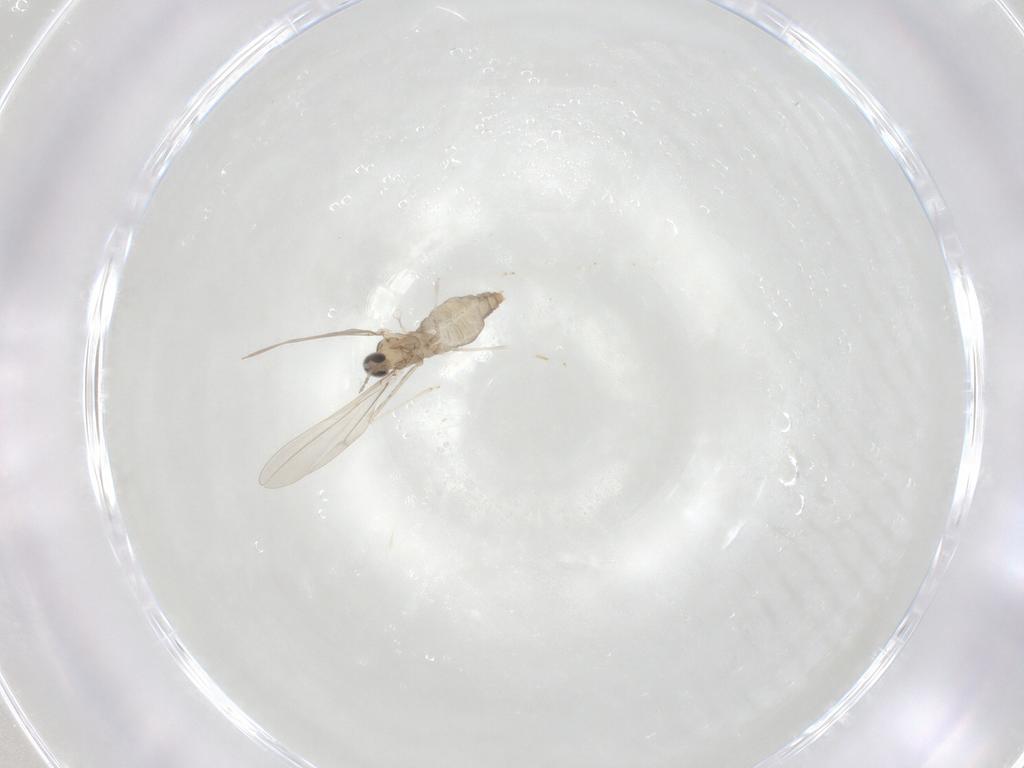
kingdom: Animalia
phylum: Arthropoda
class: Insecta
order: Diptera
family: Cecidomyiidae
